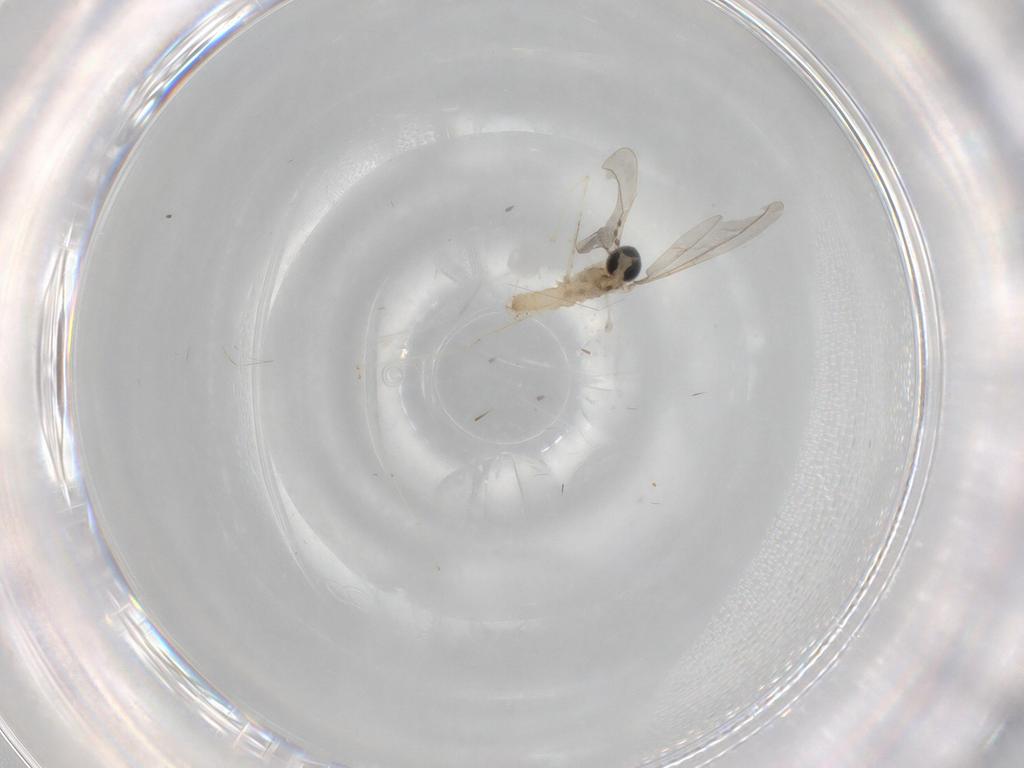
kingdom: Animalia
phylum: Arthropoda
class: Insecta
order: Diptera
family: Cecidomyiidae
